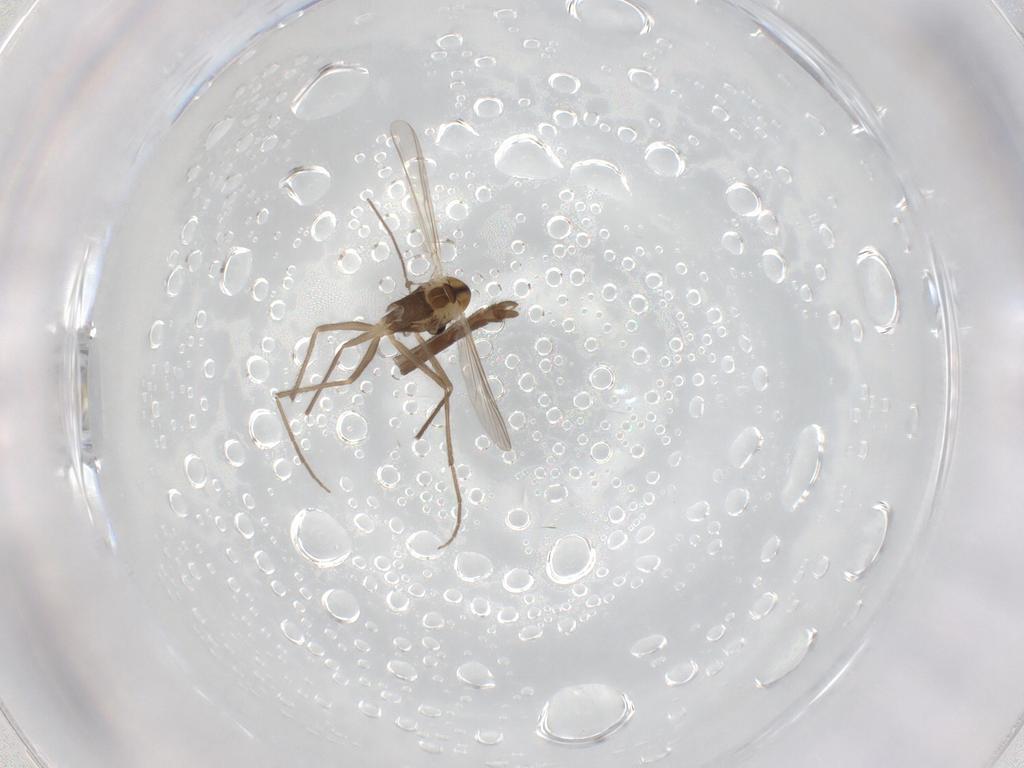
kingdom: Animalia
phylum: Arthropoda
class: Insecta
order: Diptera
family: Chironomidae
